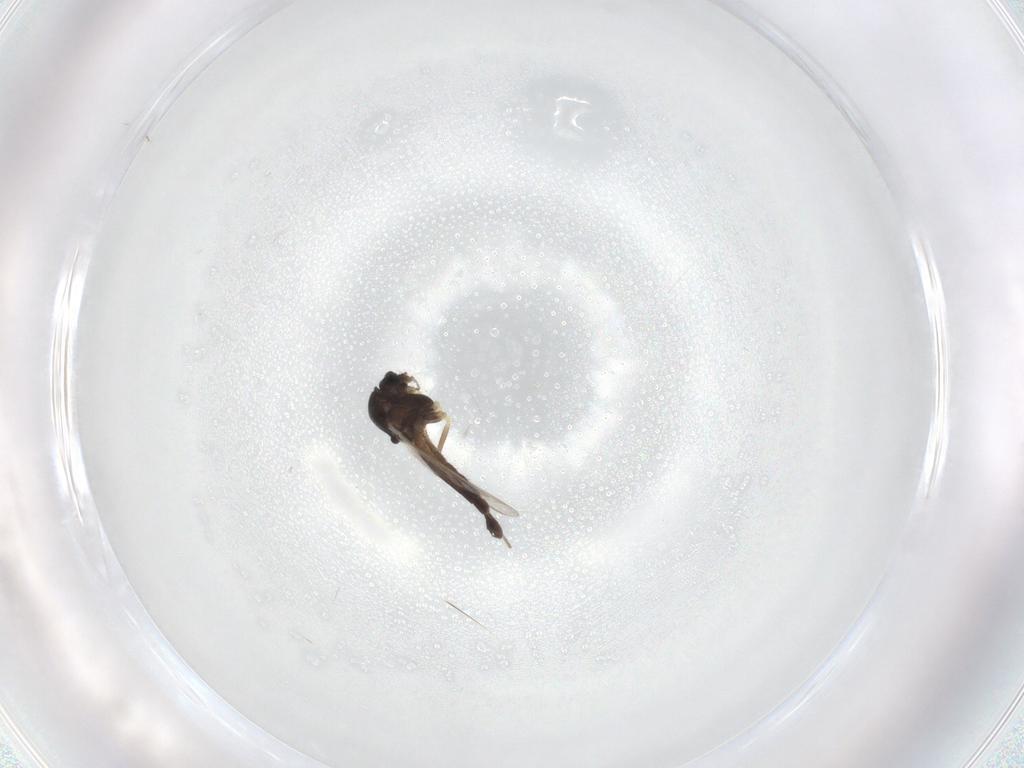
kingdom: Animalia
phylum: Arthropoda
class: Insecta
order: Diptera
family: Chironomidae
